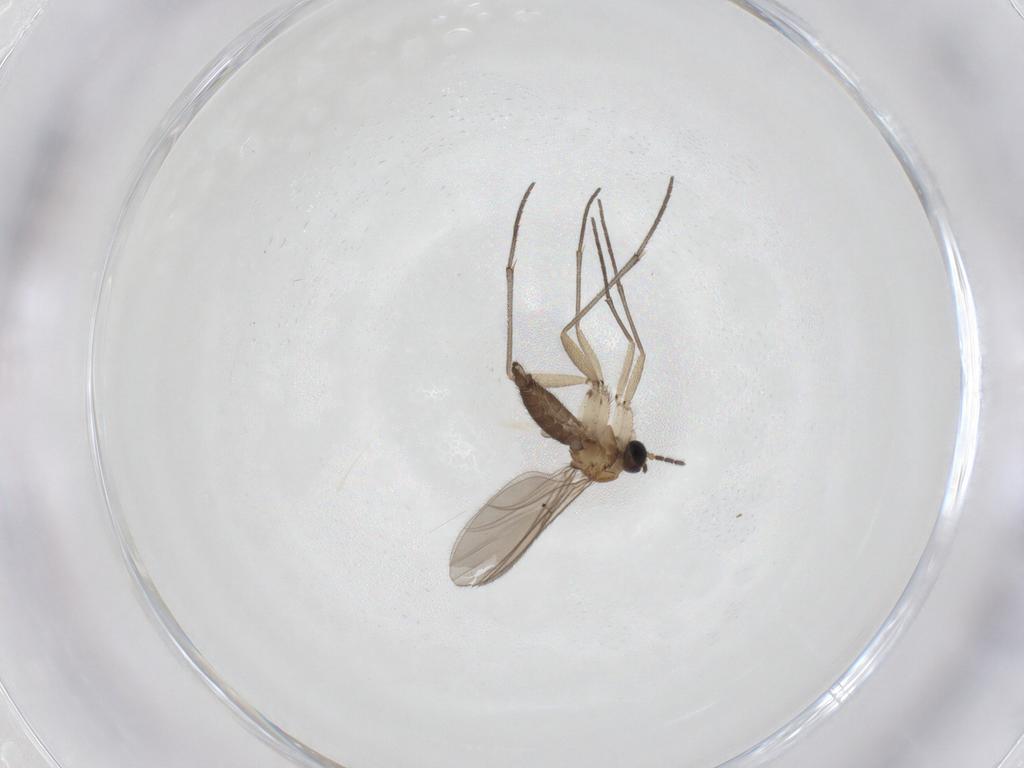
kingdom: Animalia
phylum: Arthropoda
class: Insecta
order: Diptera
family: Sciaridae
